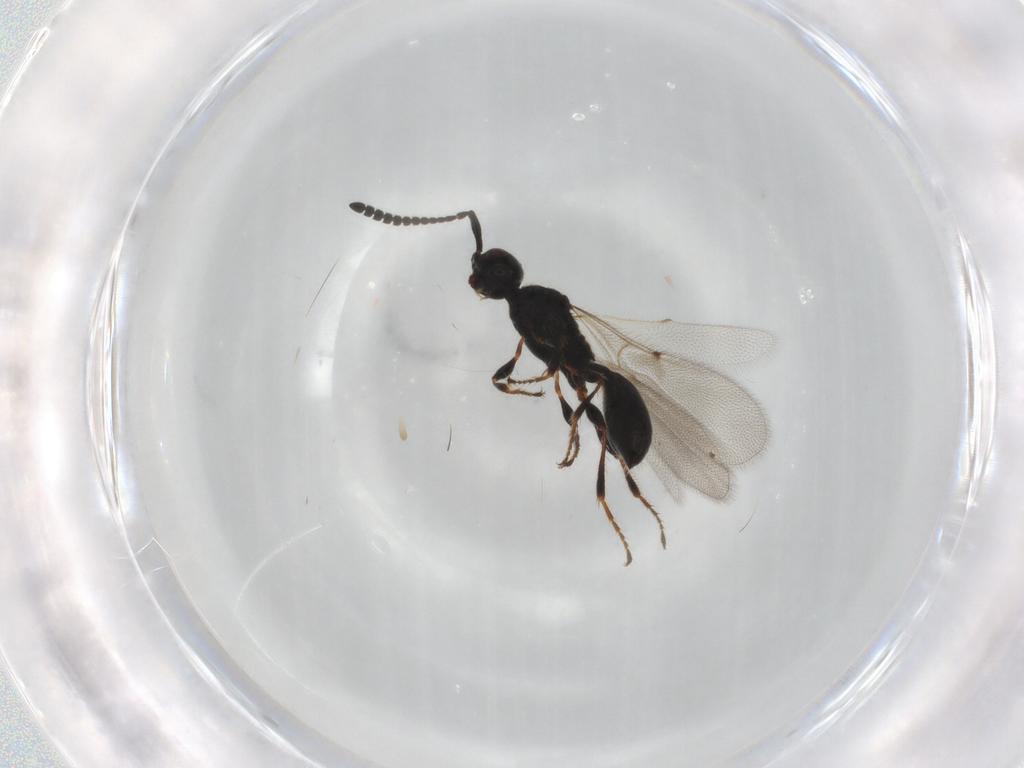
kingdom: Animalia
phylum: Arthropoda
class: Insecta
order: Hymenoptera
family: Diapriidae
